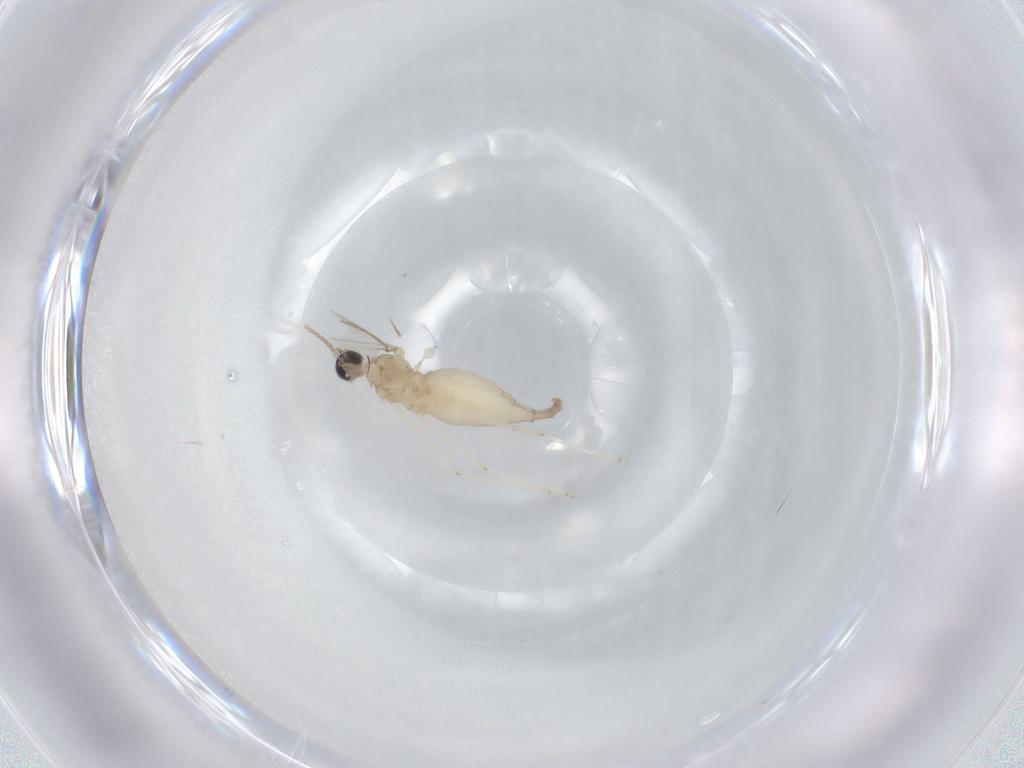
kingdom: Animalia
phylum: Arthropoda
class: Insecta
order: Diptera
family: Cecidomyiidae
